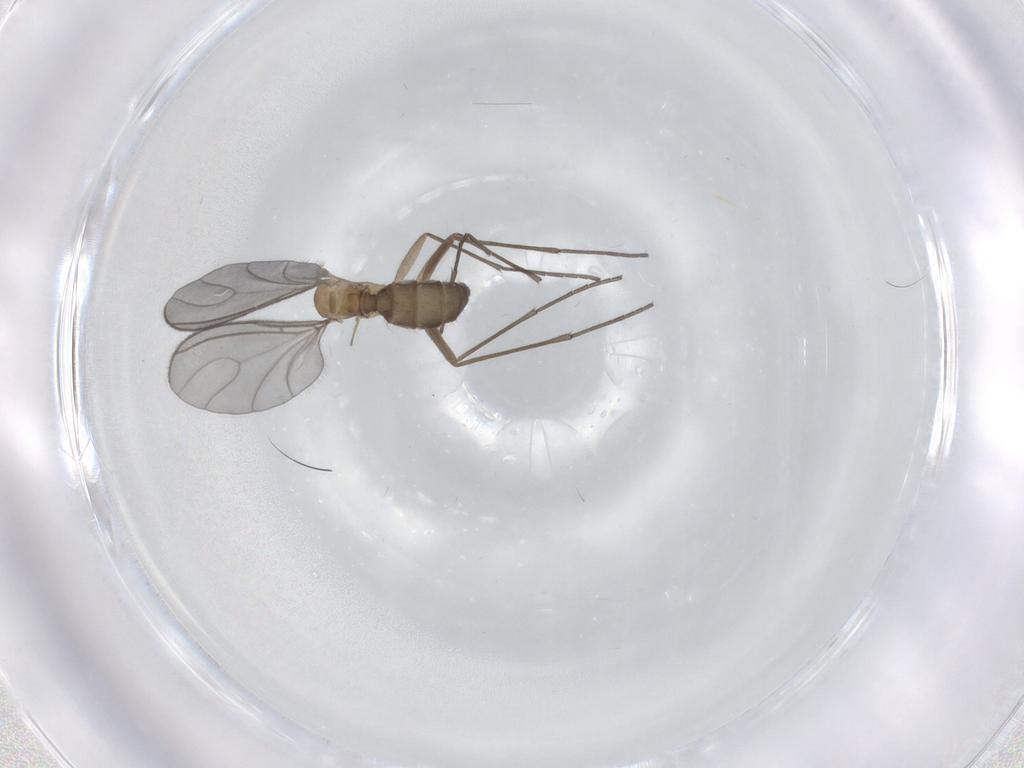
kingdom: Animalia
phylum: Arthropoda
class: Insecta
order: Diptera
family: Sciaridae
